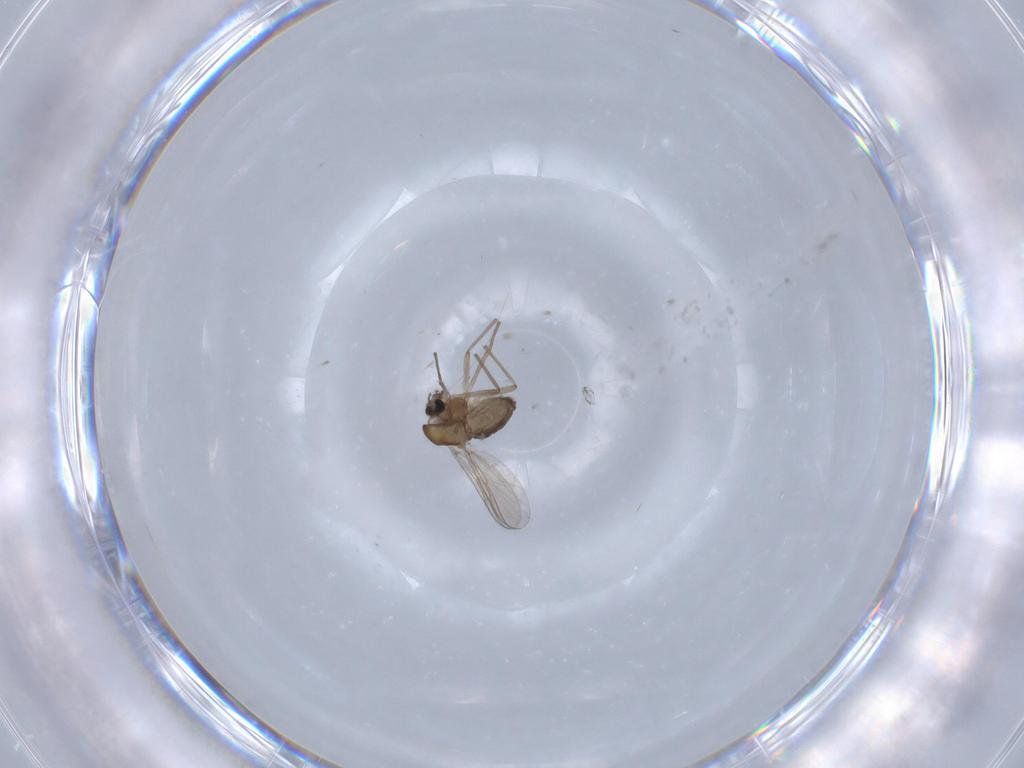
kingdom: Animalia
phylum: Arthropoda
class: Insecta
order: Diptera
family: Chironomidae
